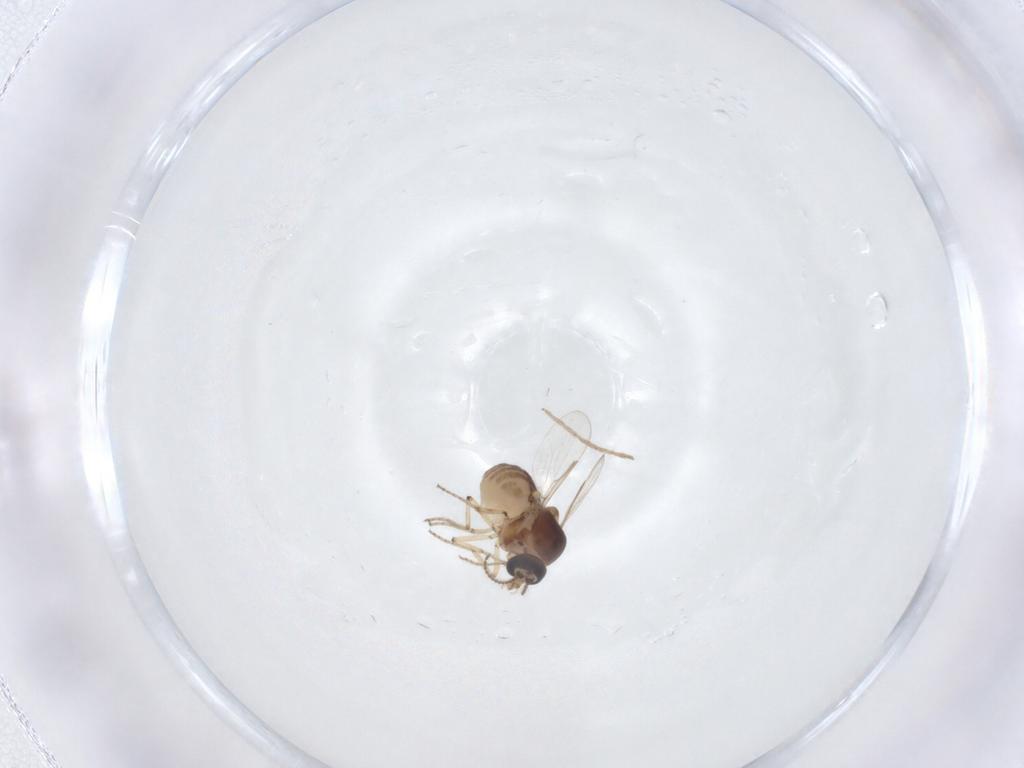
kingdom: Animalia
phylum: Arthropoda
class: Insecta
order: Diptera
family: Ceratopogonidae
